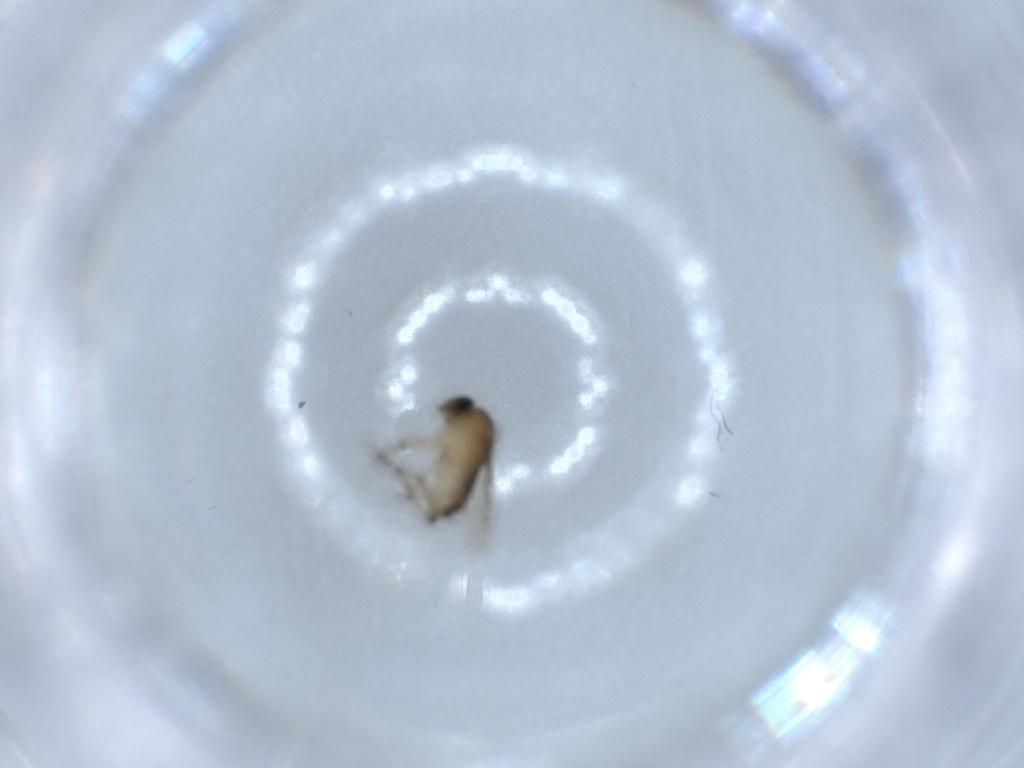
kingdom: Animalia
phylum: Arthropoda
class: Insecta
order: Diptera
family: Phoridae
